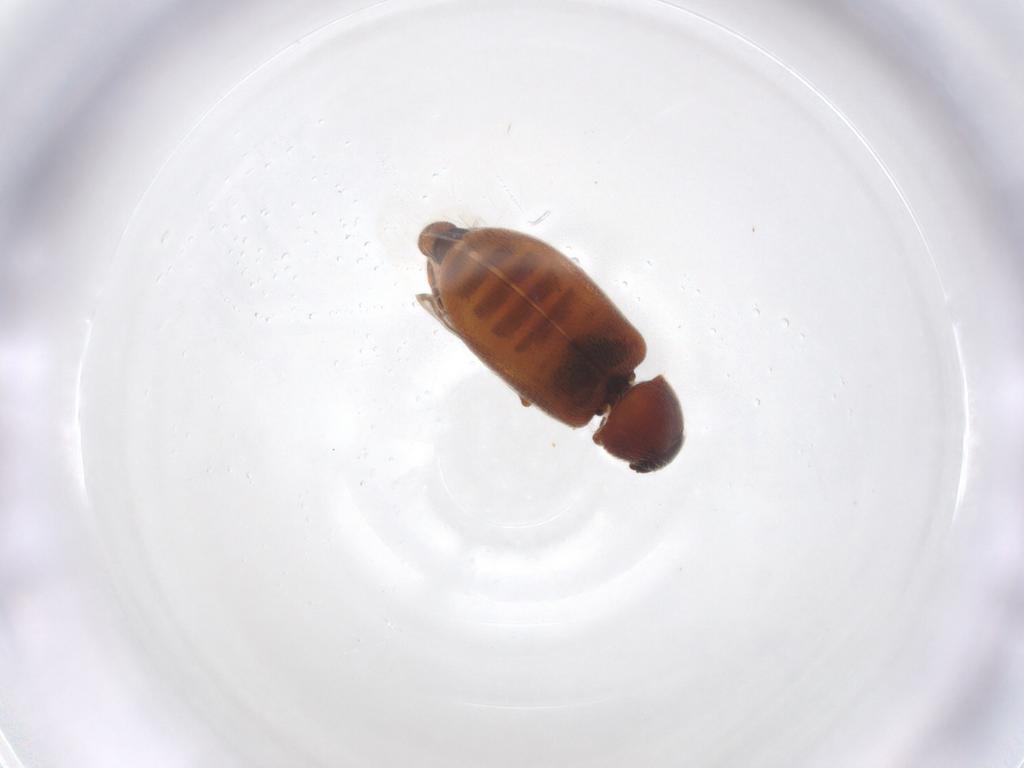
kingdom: Animalia
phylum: Arthropoda
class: Insecta
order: Coleoptera
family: Rhadalidae
